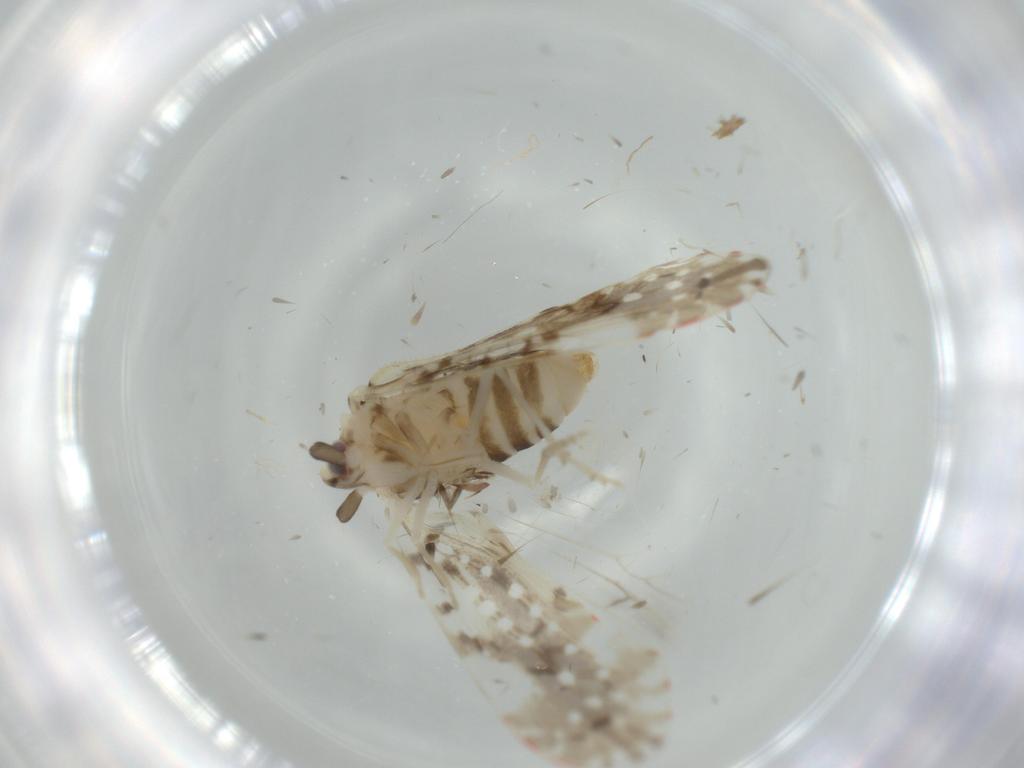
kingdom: Animalia
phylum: Arthropoda
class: Insecta
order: Hemiptera
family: Derbidae
